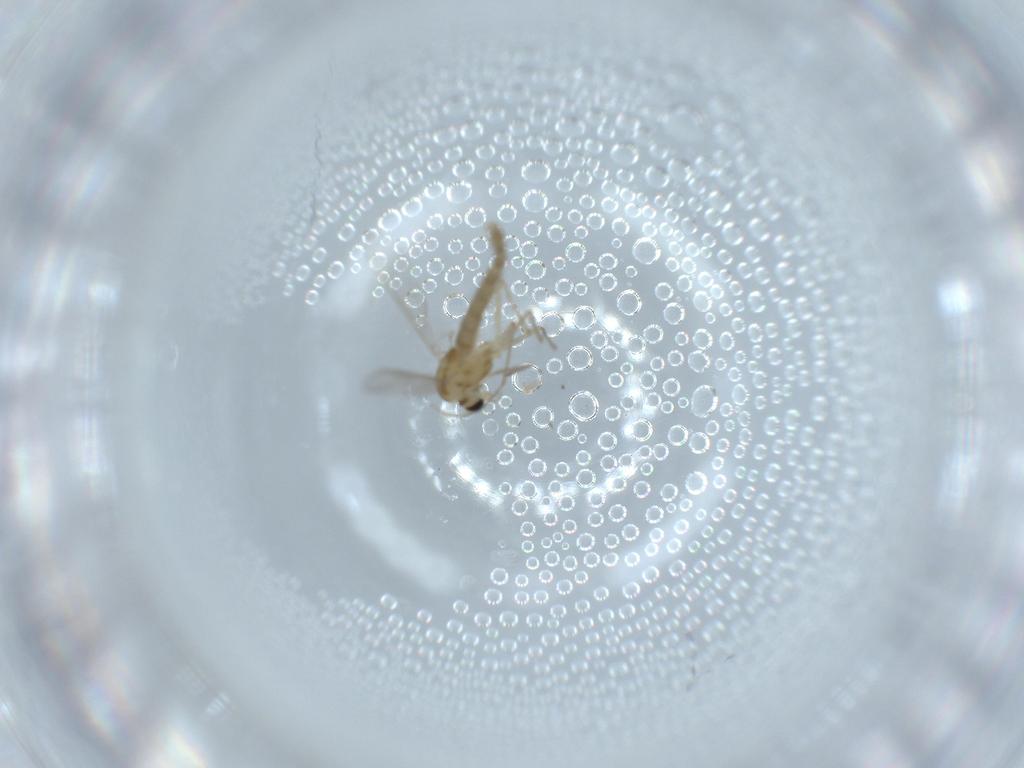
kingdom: Animalia
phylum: Arthropoda
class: Insecta
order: Diptera
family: Chironomidae
